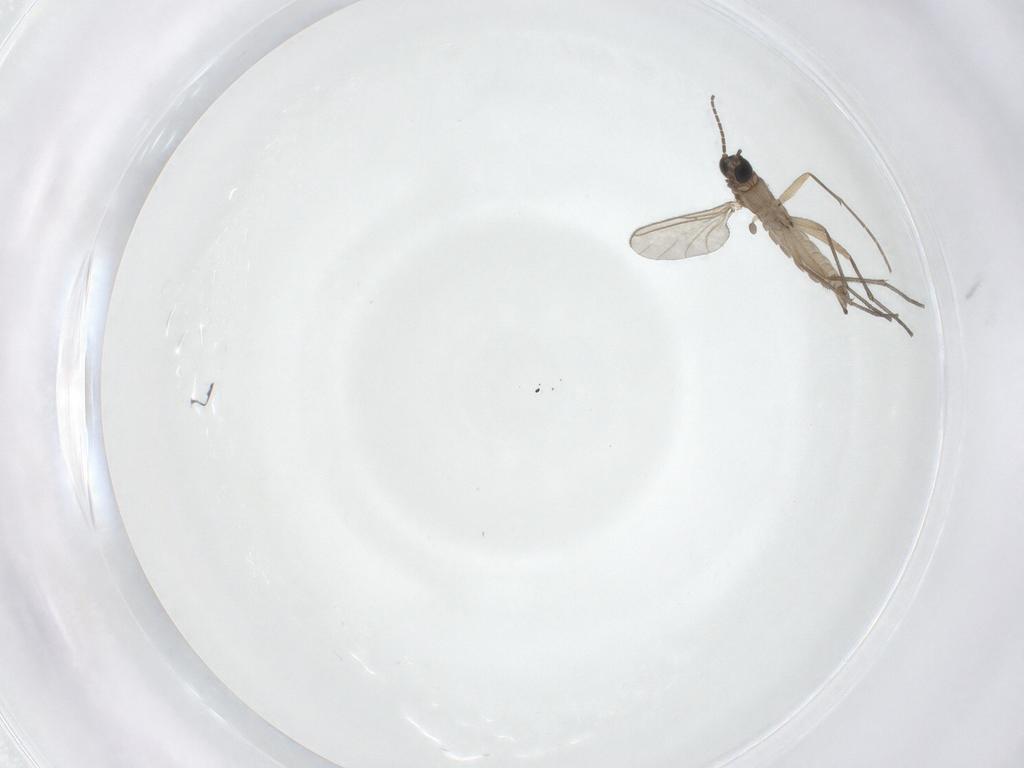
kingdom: Animalia
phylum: Arthropoda
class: Insecta
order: Diptera
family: Sciaridae
